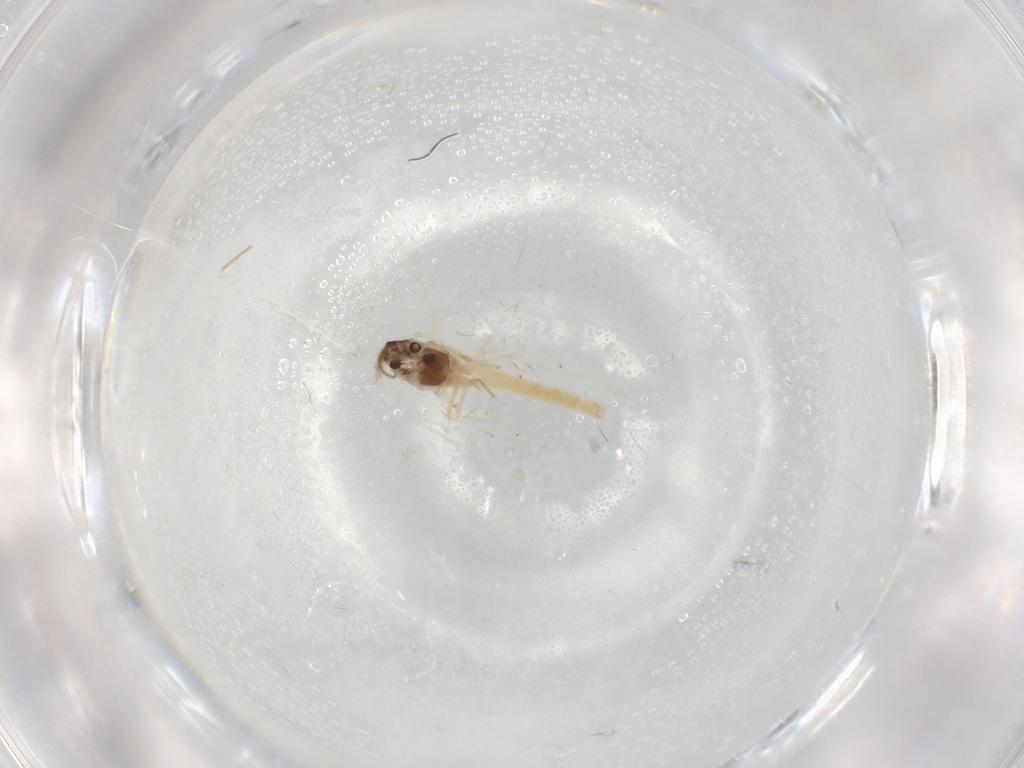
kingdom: Animalia
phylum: Arthropoda
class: Insecta
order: Diptera
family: Chironomidae
